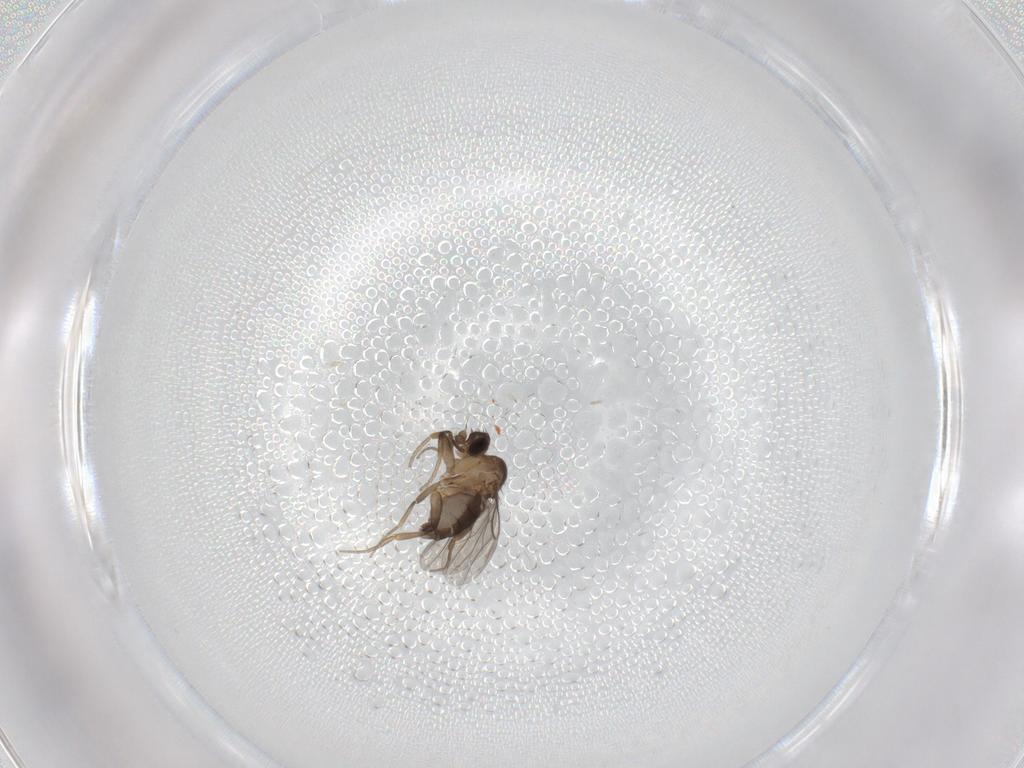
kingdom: Animalia
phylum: Arthropoda
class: Insecta
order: Diptera
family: Phoridae
